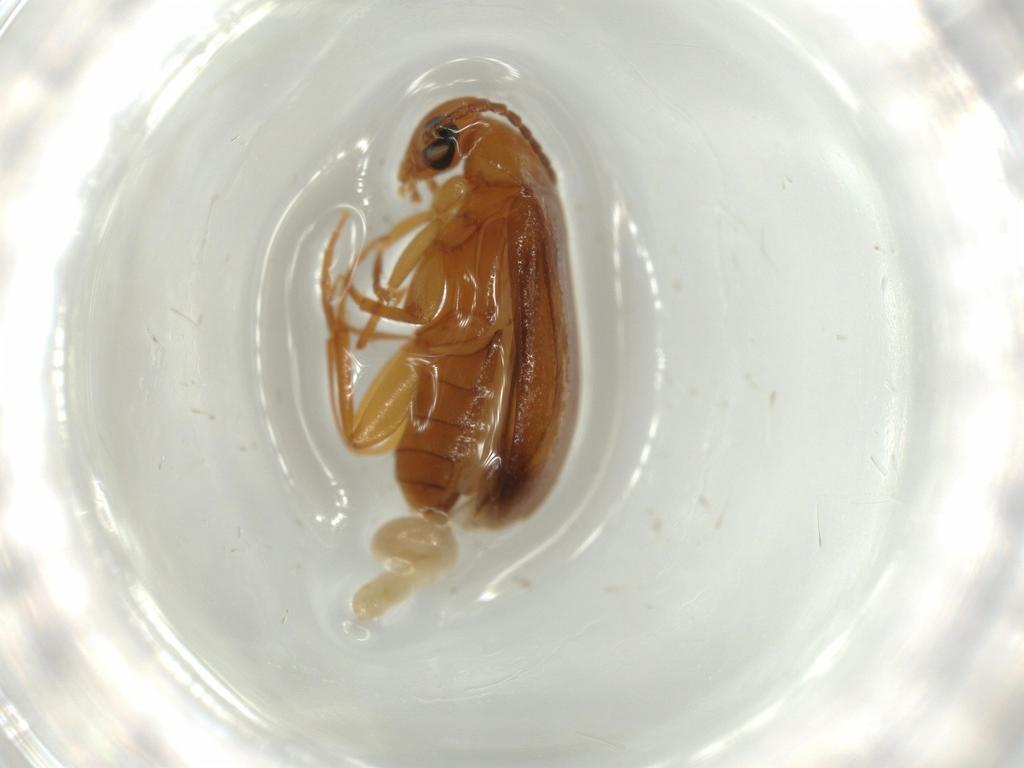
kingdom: Animalia
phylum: Arthropoda
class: Insecta
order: Coleoptera
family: Scraptiidae
